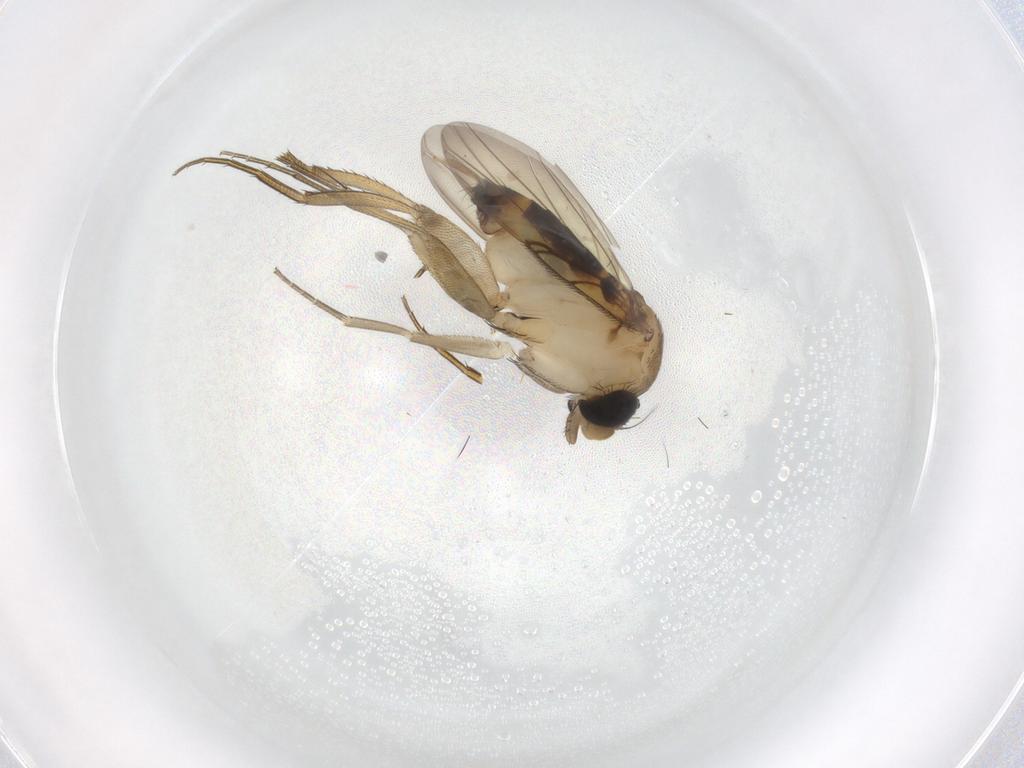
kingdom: Animalia
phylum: Arthropoda
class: Insecta
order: Diptera
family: Phoridae
